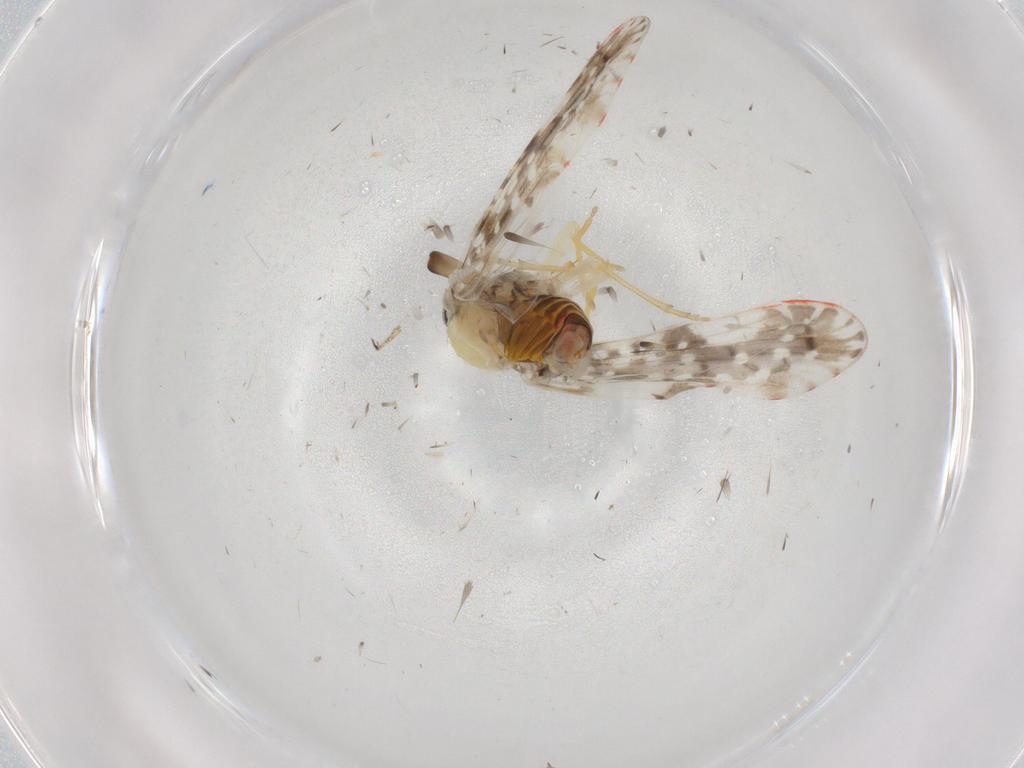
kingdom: Animalia
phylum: Arthropoda
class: Insecta
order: Hemiptera
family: Derbidae
